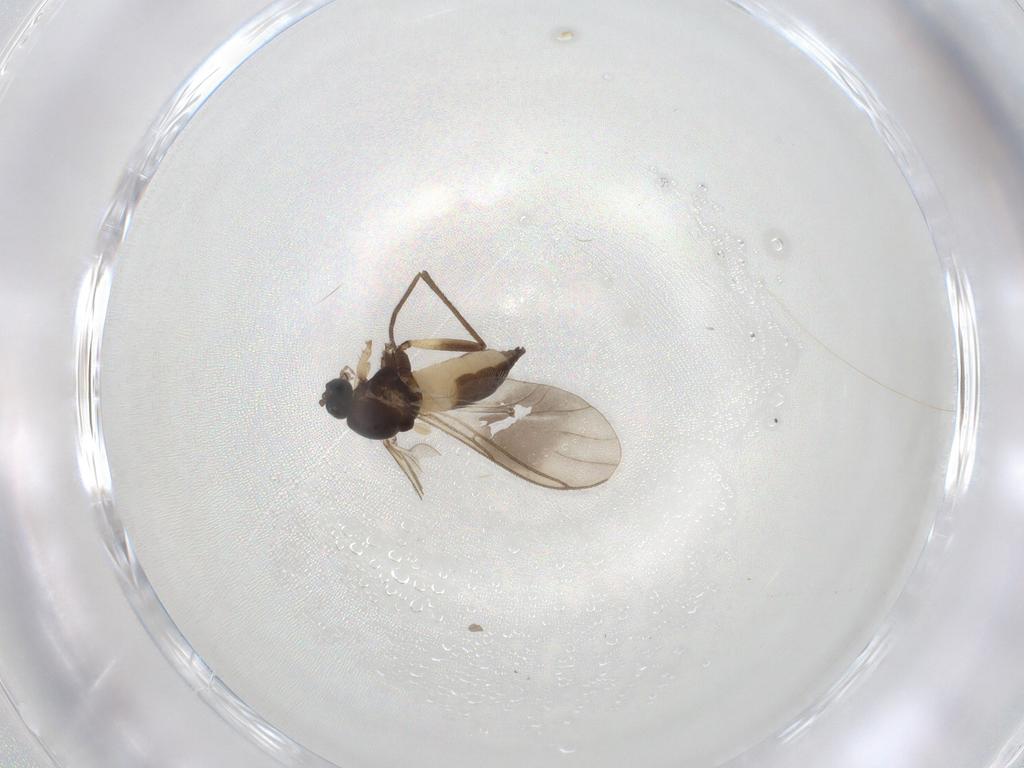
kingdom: Animalia
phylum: Arthropoda
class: Insecta
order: Diptera
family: Sciaridae
